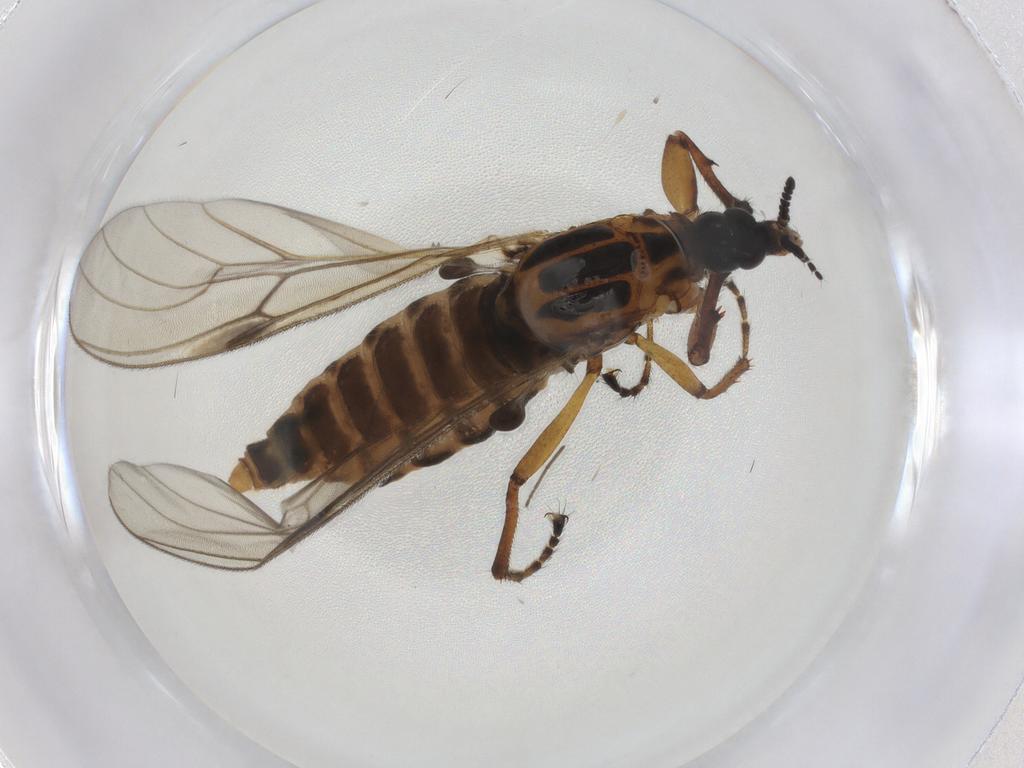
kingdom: Animalia
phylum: Arthropoda
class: Insecta
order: Diptera
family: Bibionidae
